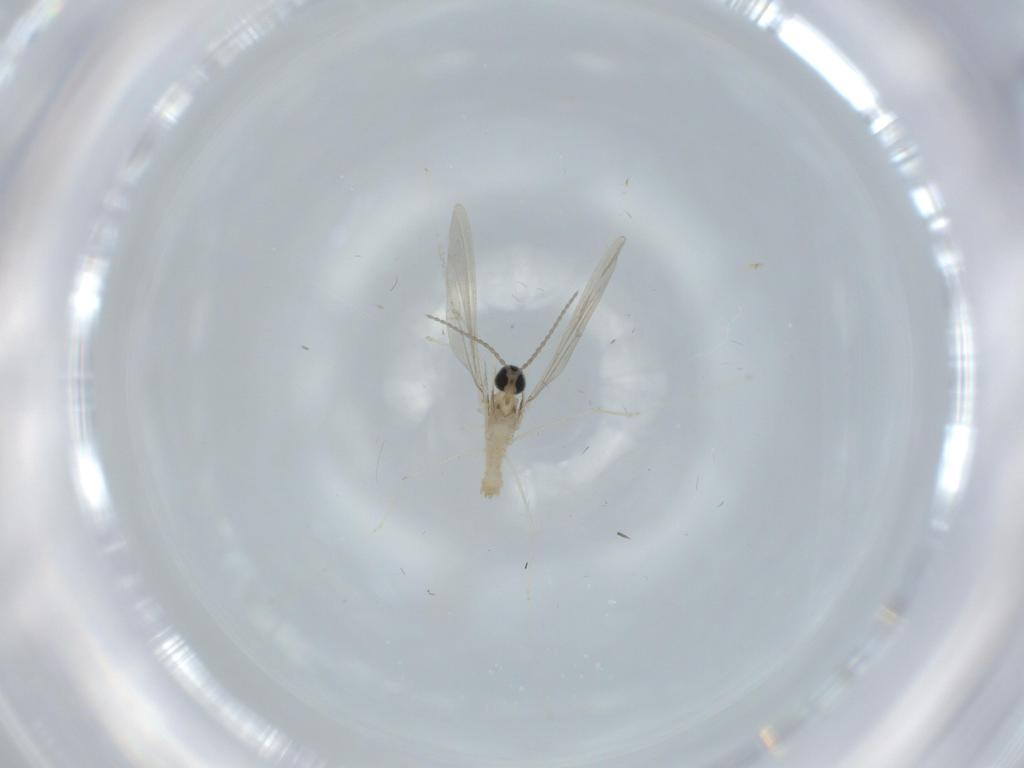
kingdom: Animalia
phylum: Arthropoda
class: Insecta
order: Diptera
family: Cecidomyiidae
